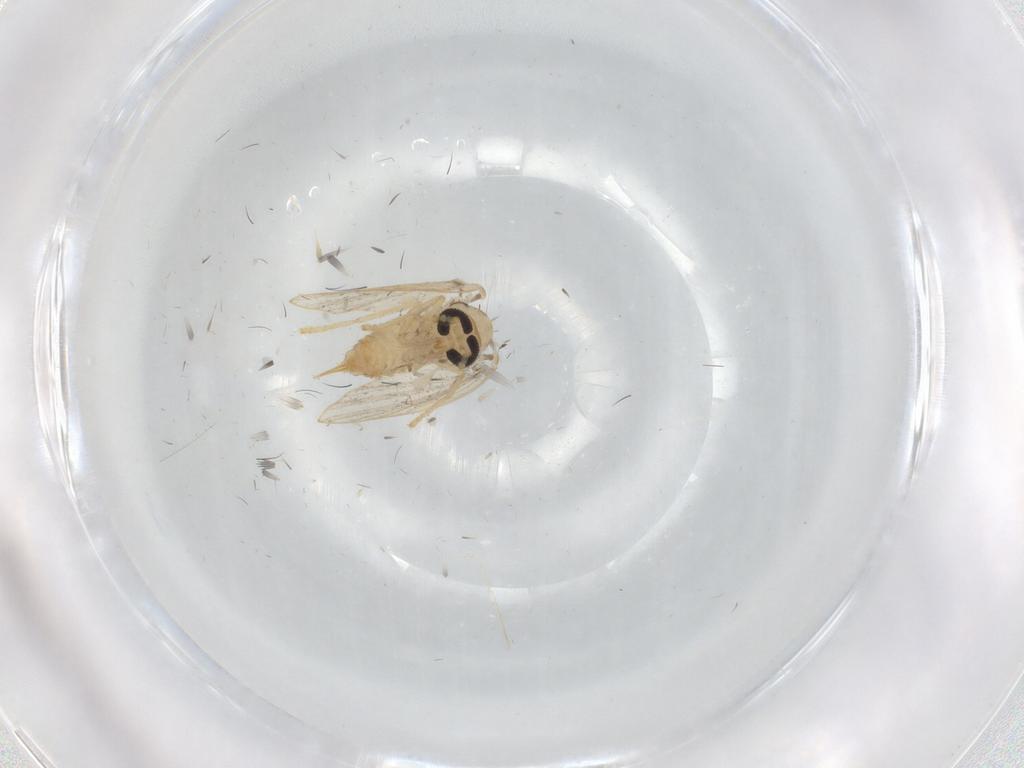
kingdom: Animalia
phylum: Arthropoda
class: Insecta
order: Diptera
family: Psychodidae
